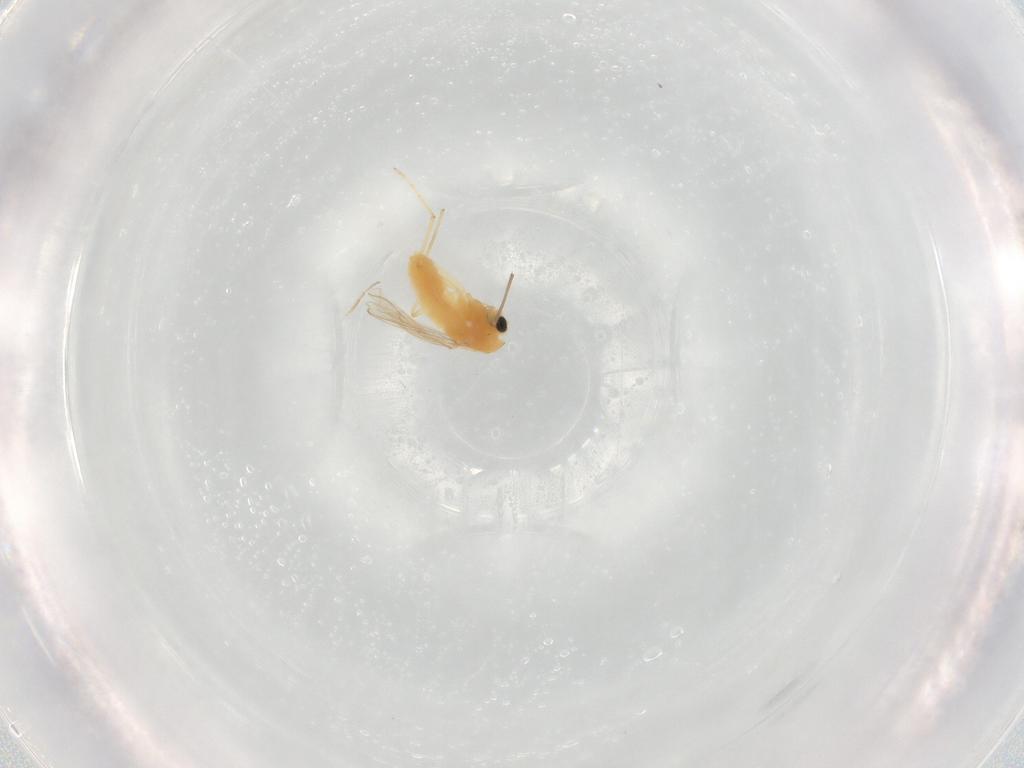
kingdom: Animalia
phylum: Arthropoda
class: Insecta
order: Diptera
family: Chironomidae
